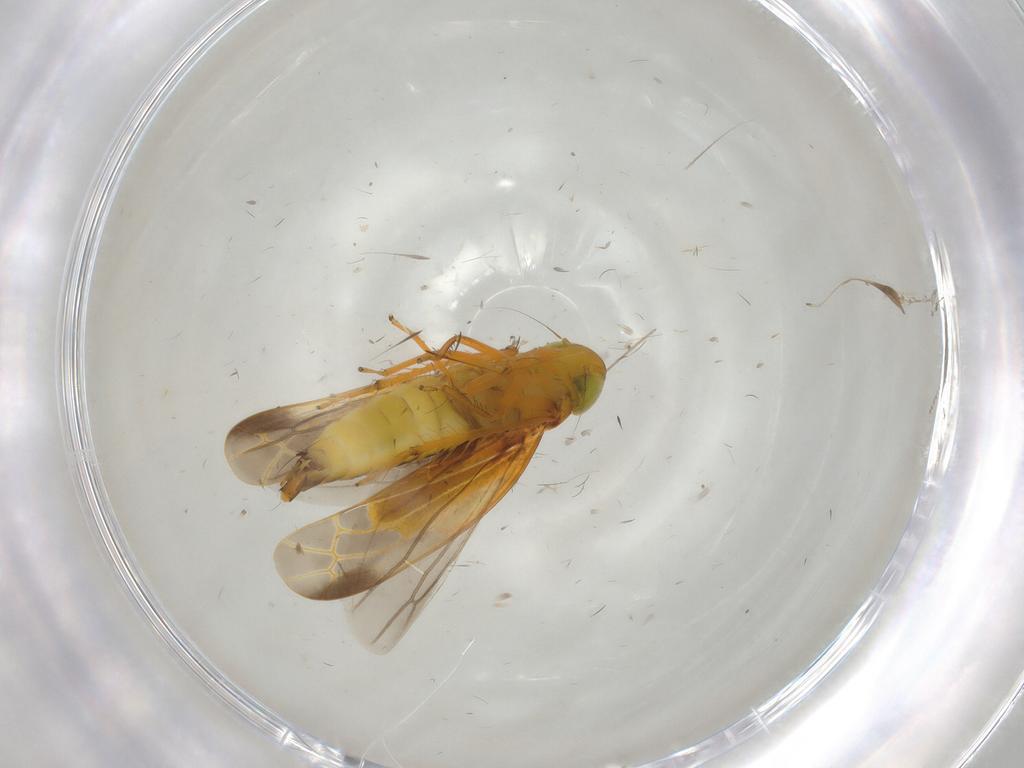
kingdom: Animalia
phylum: Arthropoda
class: Insecta
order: Hemiptera
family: Cicadellidae
